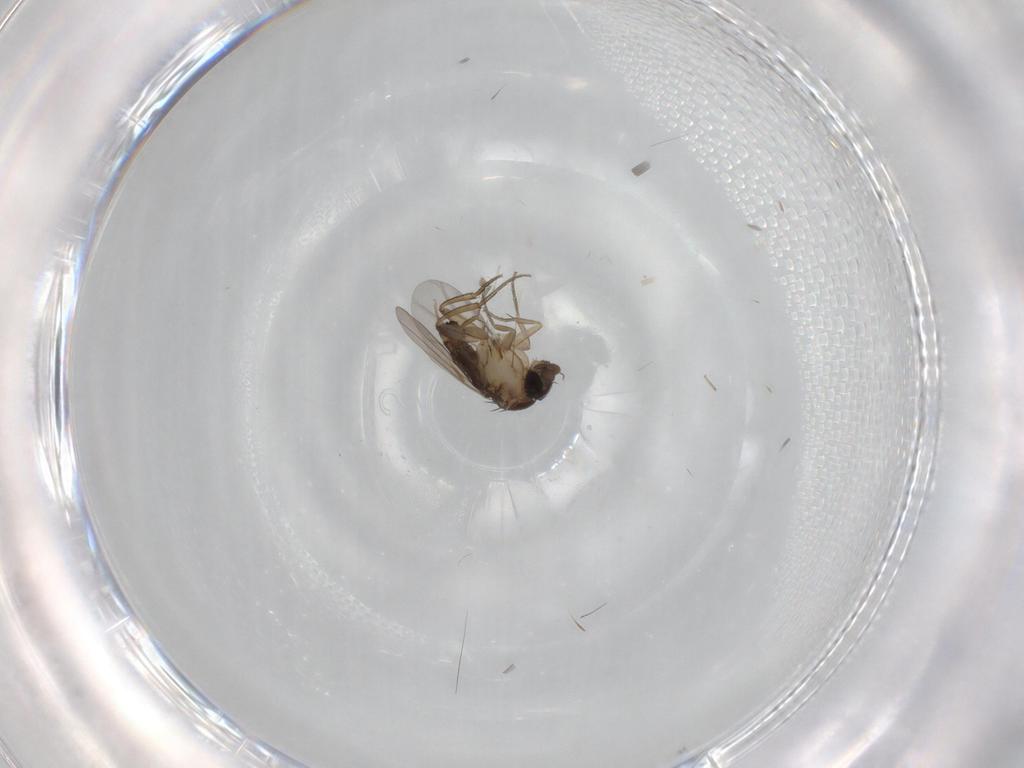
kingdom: Animalia
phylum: Arthropoda
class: Insecta
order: Diptera
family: Phoridae
